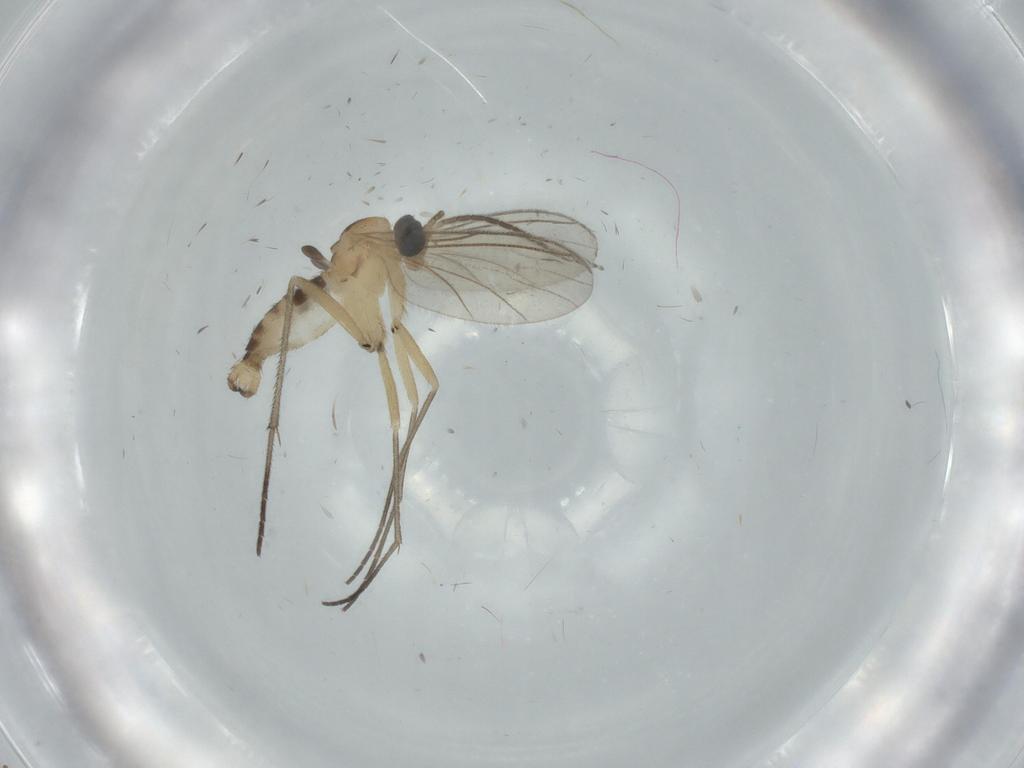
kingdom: Animalia
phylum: Arthropoda
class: Insecta
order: Diptera
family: Sciaridae
